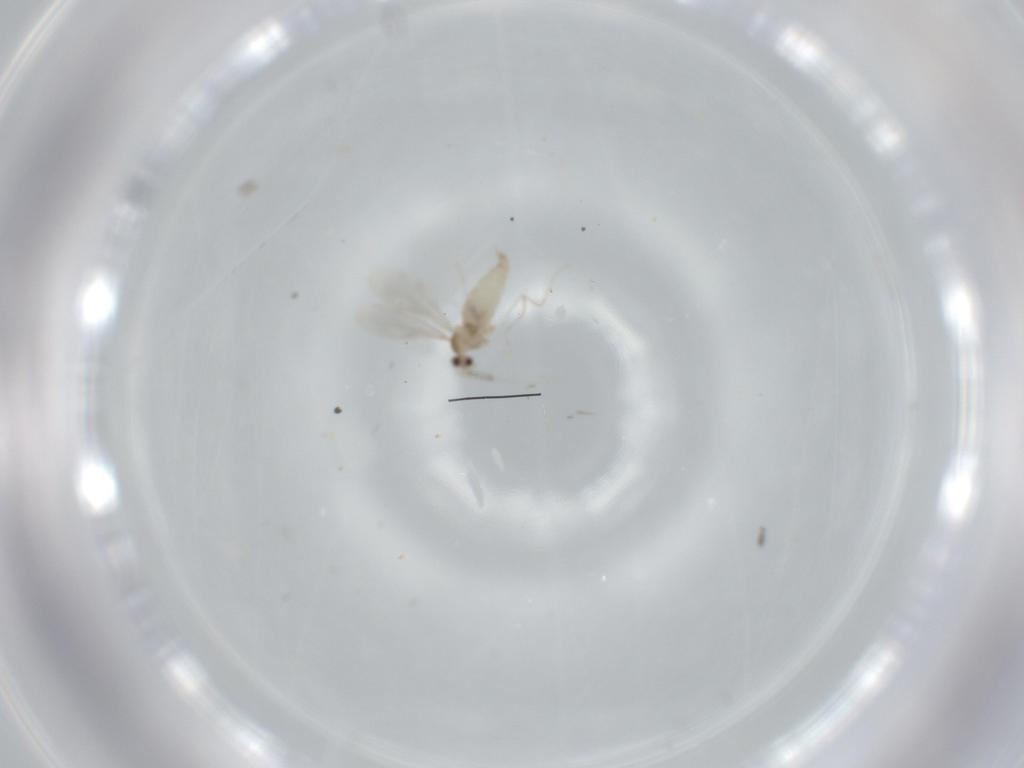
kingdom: Animalia
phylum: Arthropoda
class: Insecta
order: Diptera
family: Cecidomyiidae
